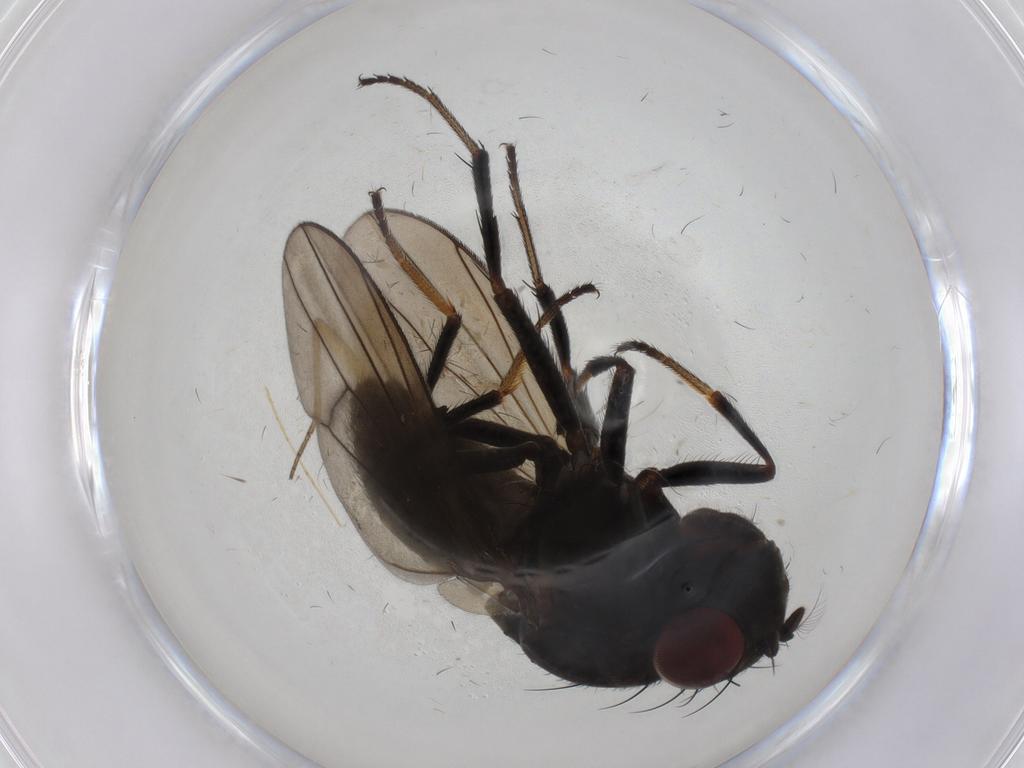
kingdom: Animalia
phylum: Arthropoda
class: Insecta
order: Diptera
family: Ephydridae
